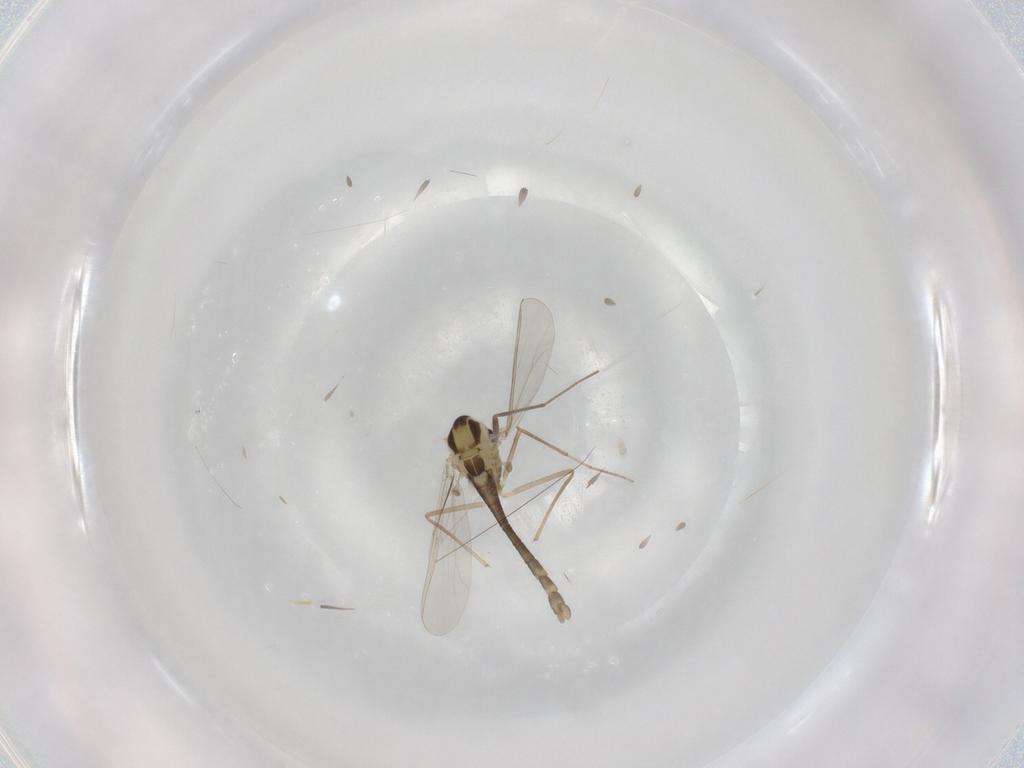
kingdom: Animalia
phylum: Arthropoda
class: Insecta
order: Diptera
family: Chironomidae
